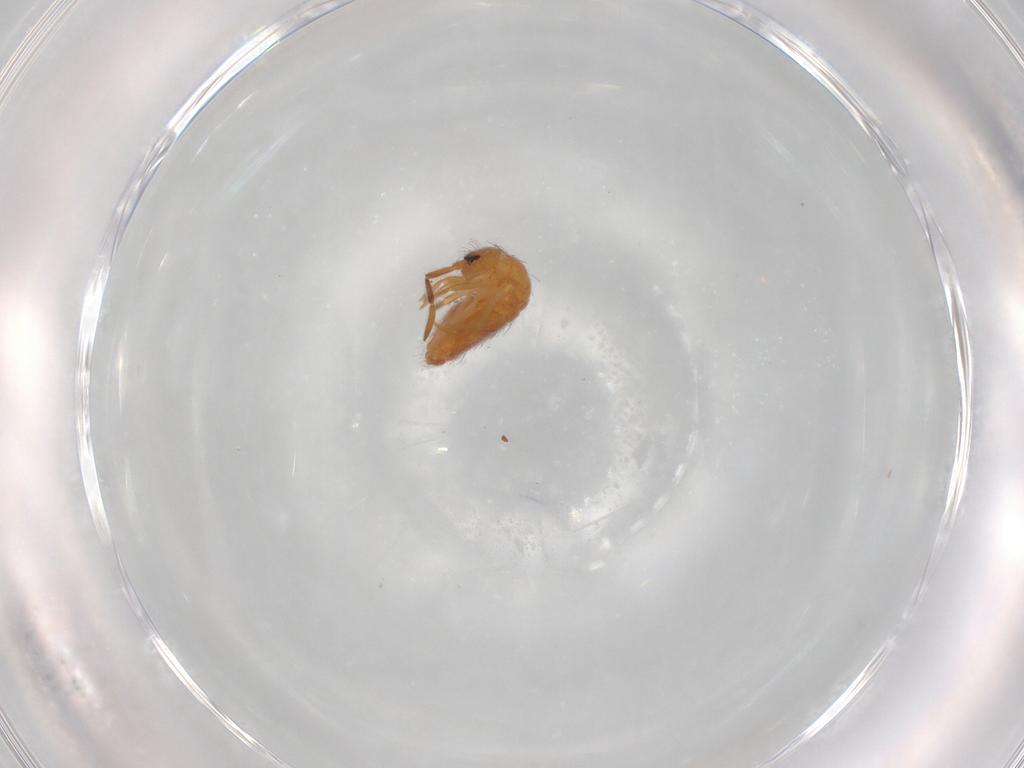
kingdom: Animalia
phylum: Arthropoda
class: Collembola
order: Entomobryomorpha
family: Entomobryidae
